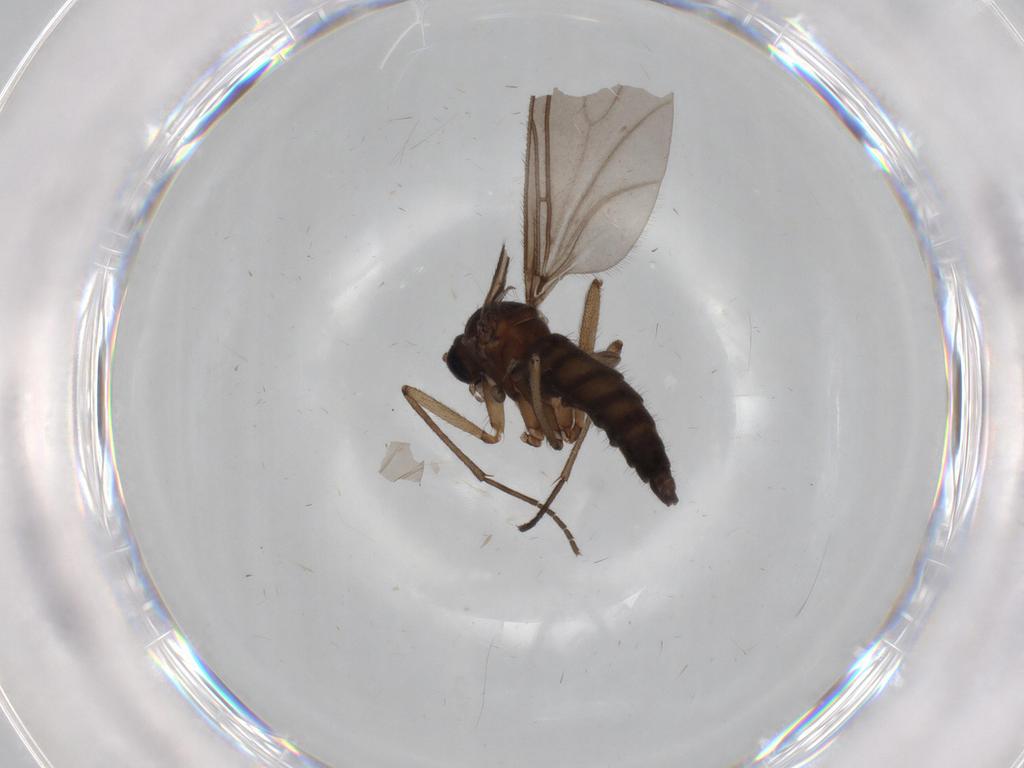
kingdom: Animalia
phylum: Arthropoda
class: Insecta
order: Diptera
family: Sciaridae
